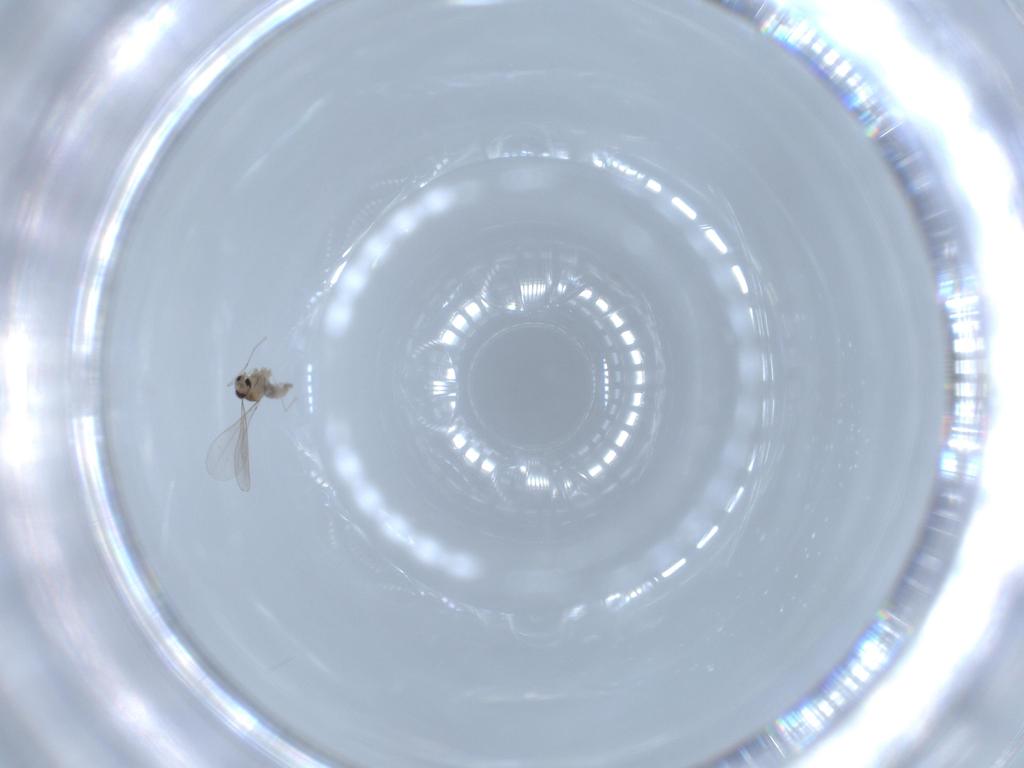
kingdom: Animalia
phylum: Arthropoda
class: Insecta
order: Diptera
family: Cecidomyiidae
